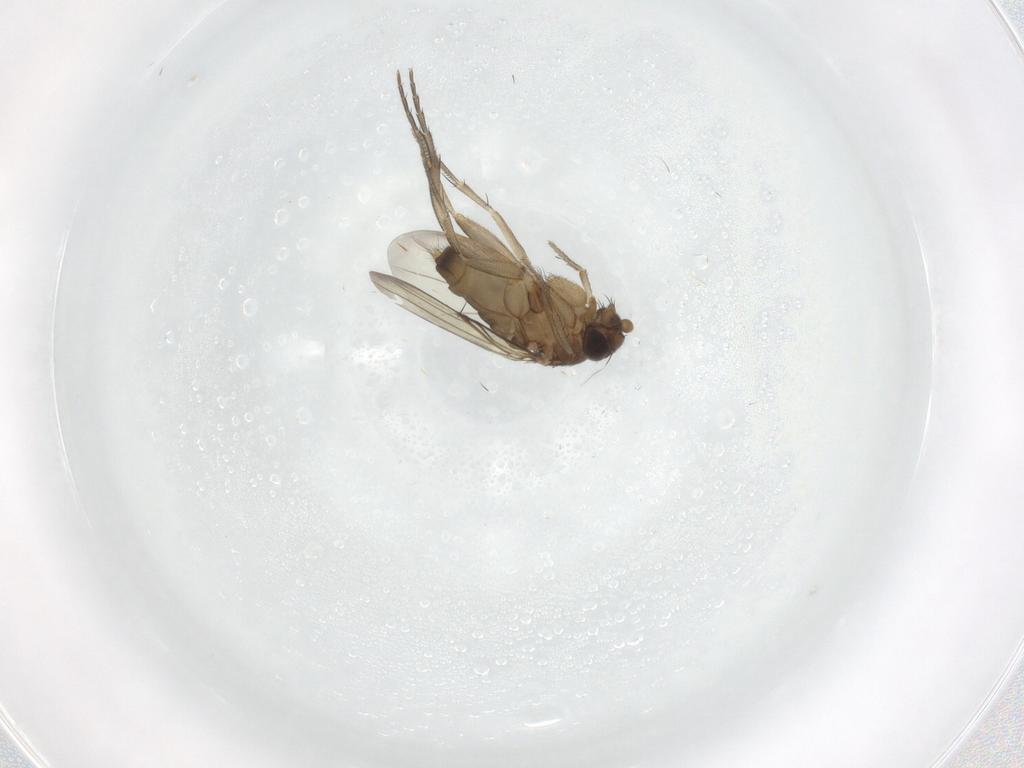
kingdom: Animalia
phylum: Arthropoda
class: Insecta
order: Diptera
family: Phoridae
